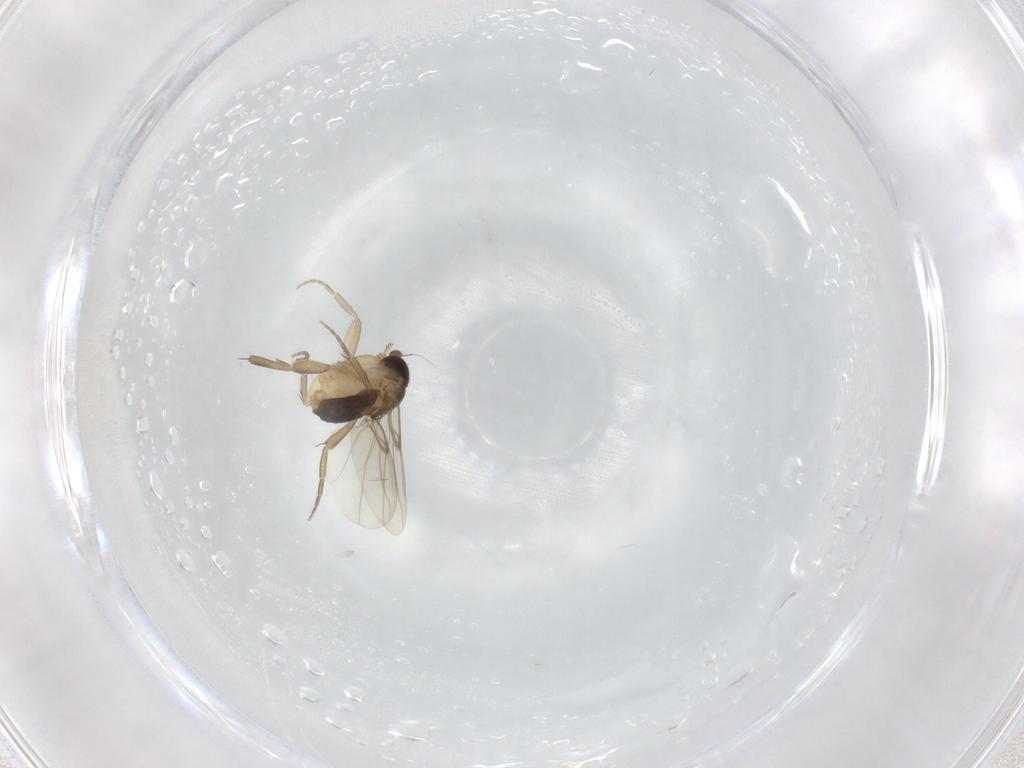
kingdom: Animalia
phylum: Arthropoda
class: Insecta
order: Diptera
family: Phoridae
